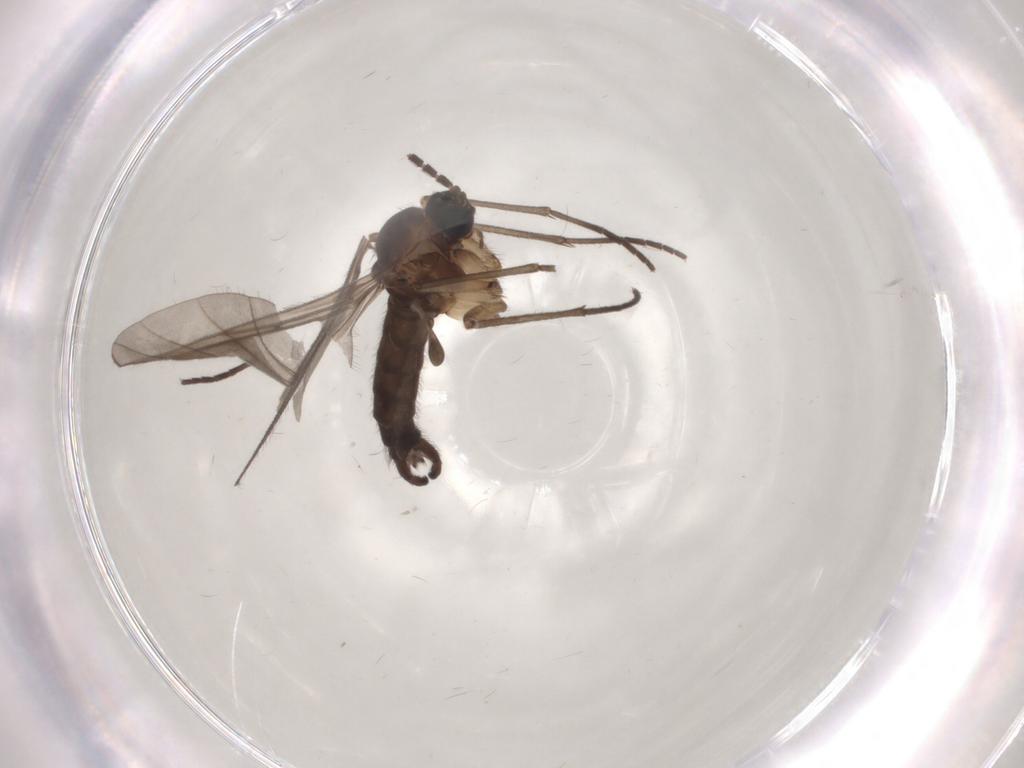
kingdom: Animalia
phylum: Arthropoda
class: Insecta
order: Diptera
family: Sciaridae
